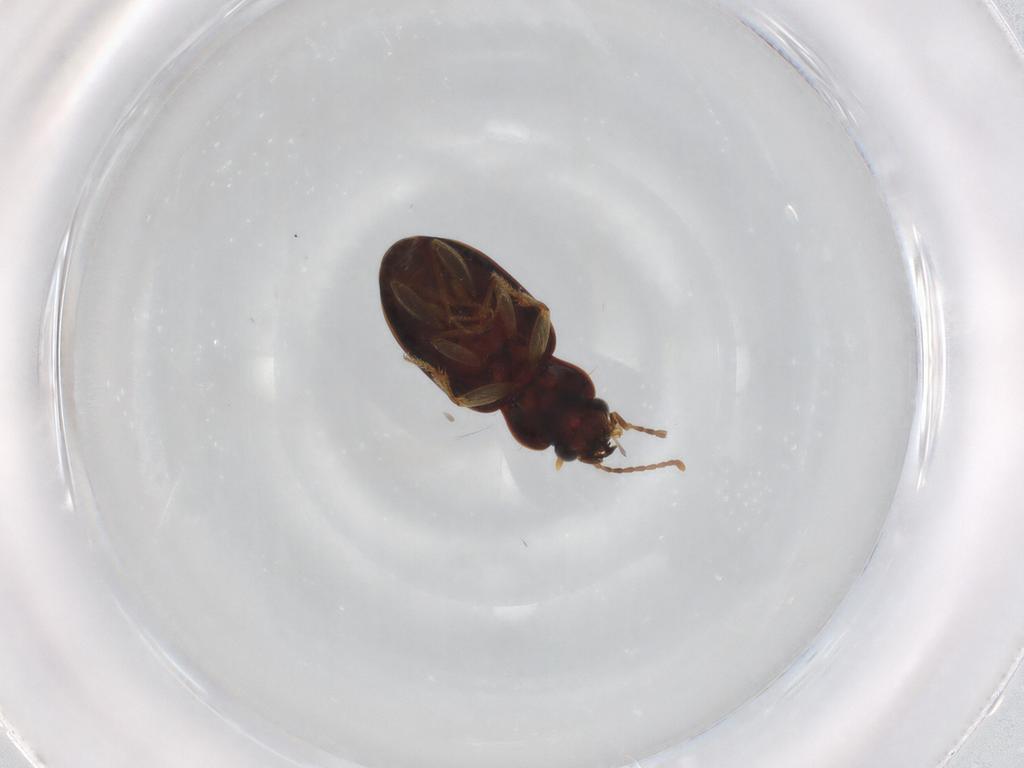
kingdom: Animalia
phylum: Arthropoda
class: Insecta
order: Coleoptera
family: Carabidae
